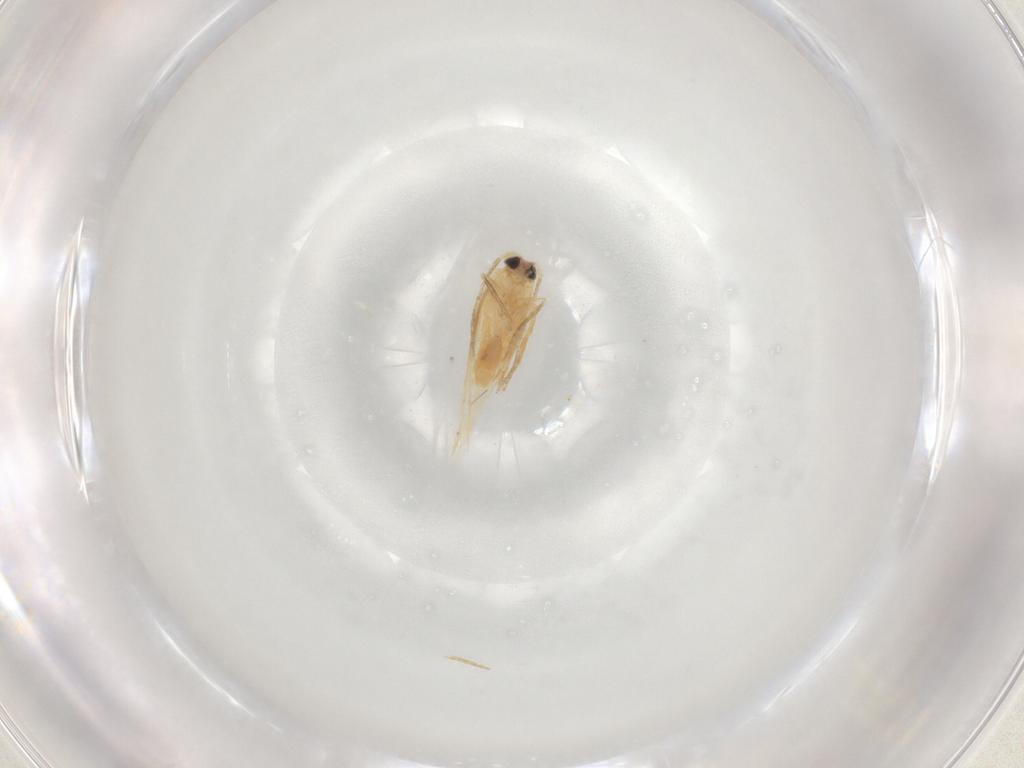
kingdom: Animalia
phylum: Arthropoda
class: Insecta
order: Lepidoptera
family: Nepticulidae
